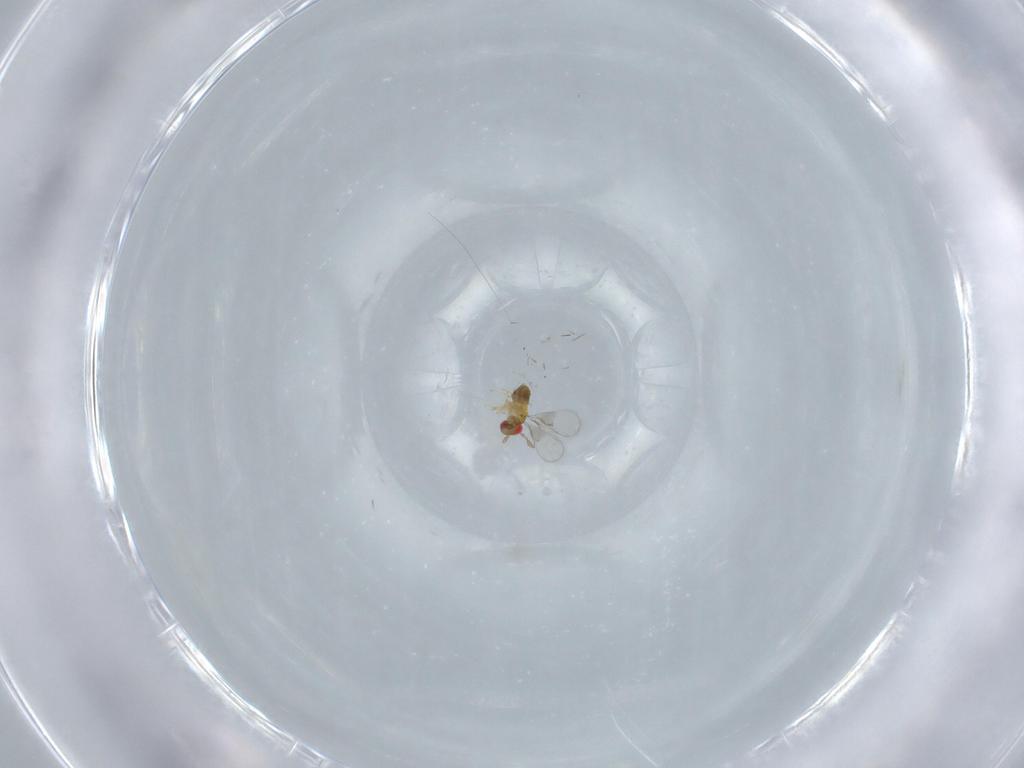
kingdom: Animalia
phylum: Arthropoda
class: Insecta
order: Hymenoptera
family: Trichogrammatidae
